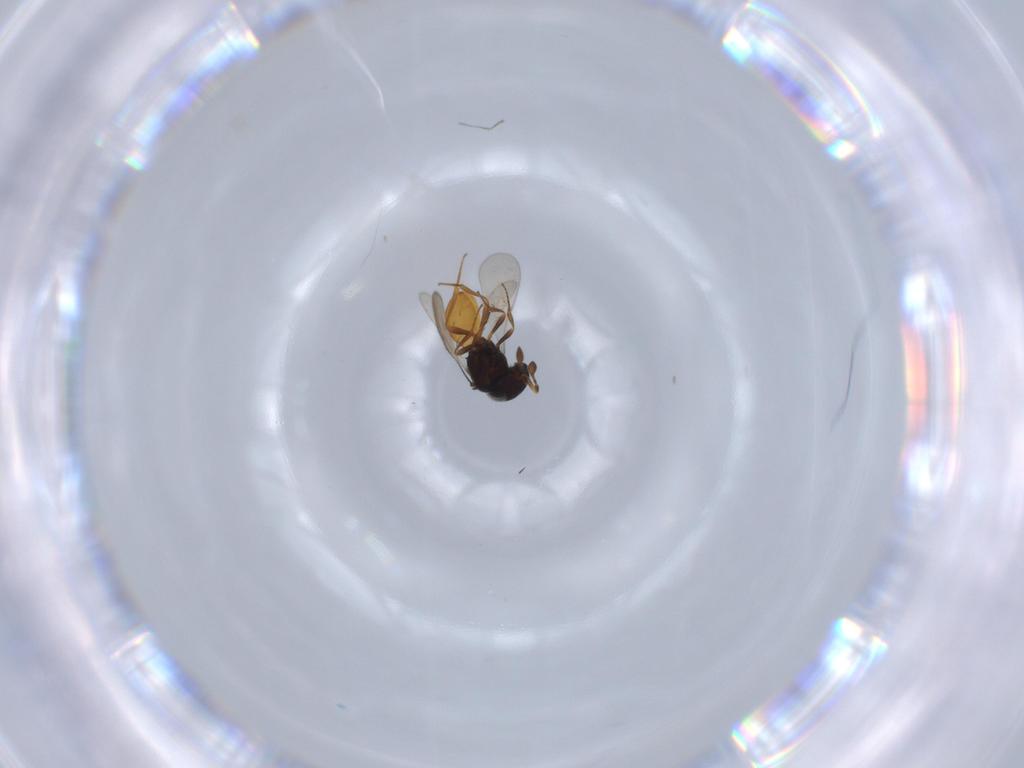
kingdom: Animalia
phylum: Arthropoda
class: Insecta
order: Hymenoptera
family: Scelionidae
